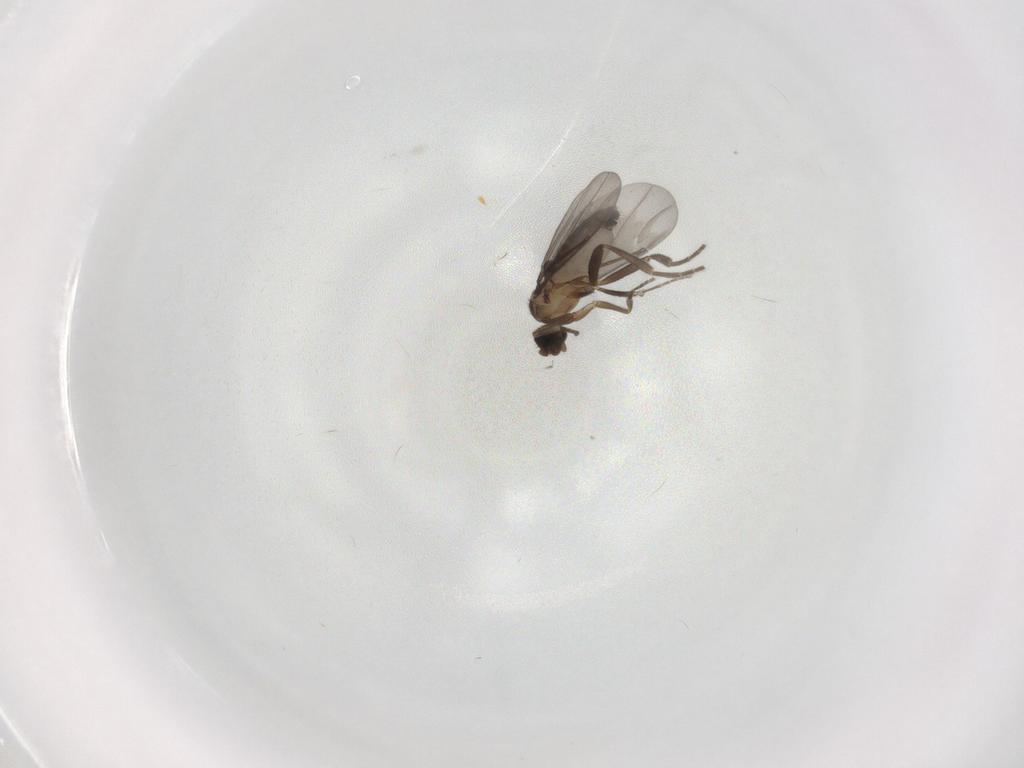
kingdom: Animalia
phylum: Arthropoda
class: Insecta
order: Diptera
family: Phoridae
